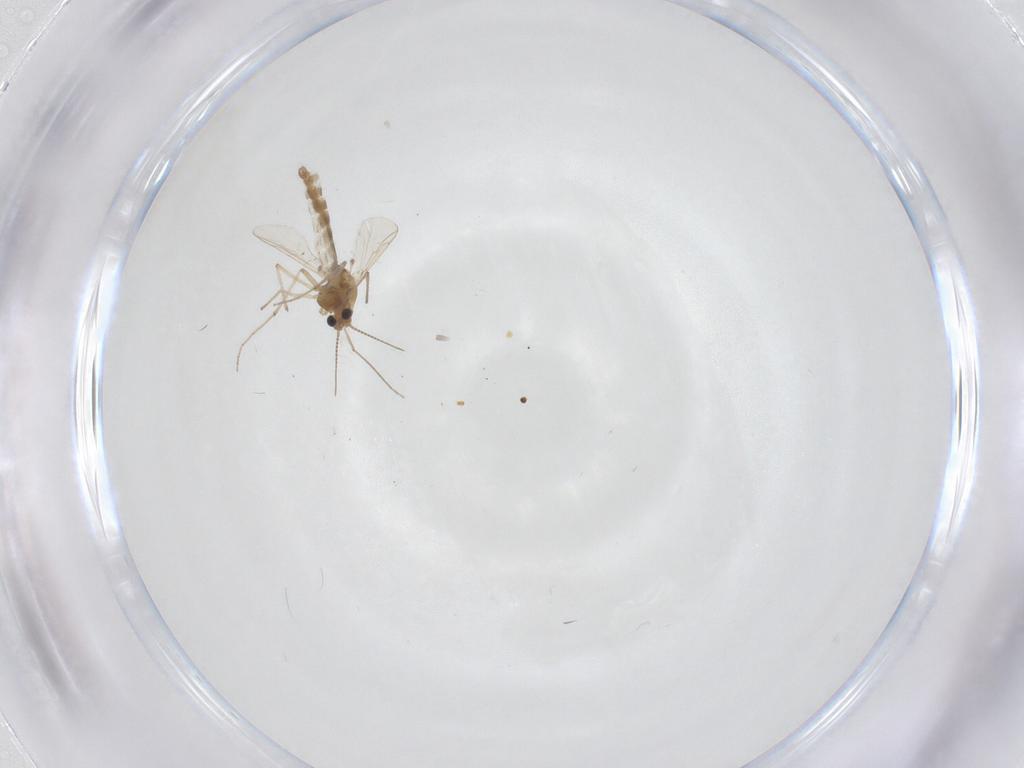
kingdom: Animalia
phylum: Arthropoda
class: Insecta
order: Diptera
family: Chironomidae
